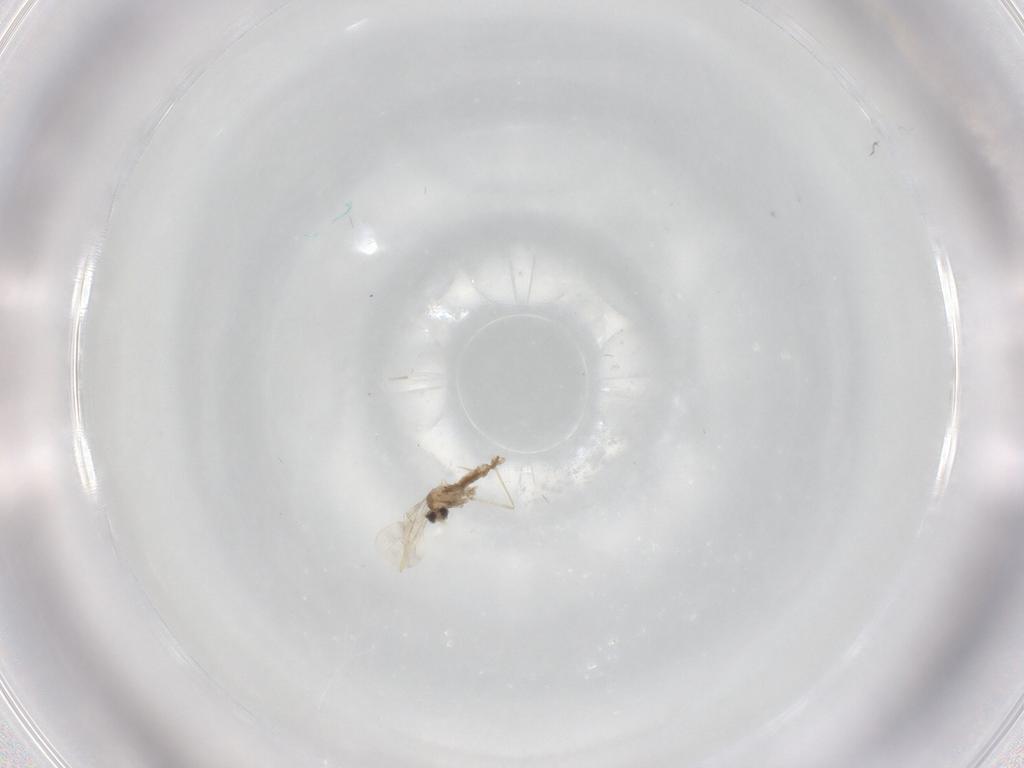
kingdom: Animalia
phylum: Arthropoda
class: Insecta
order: Diptera
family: Cecidomyiidae
